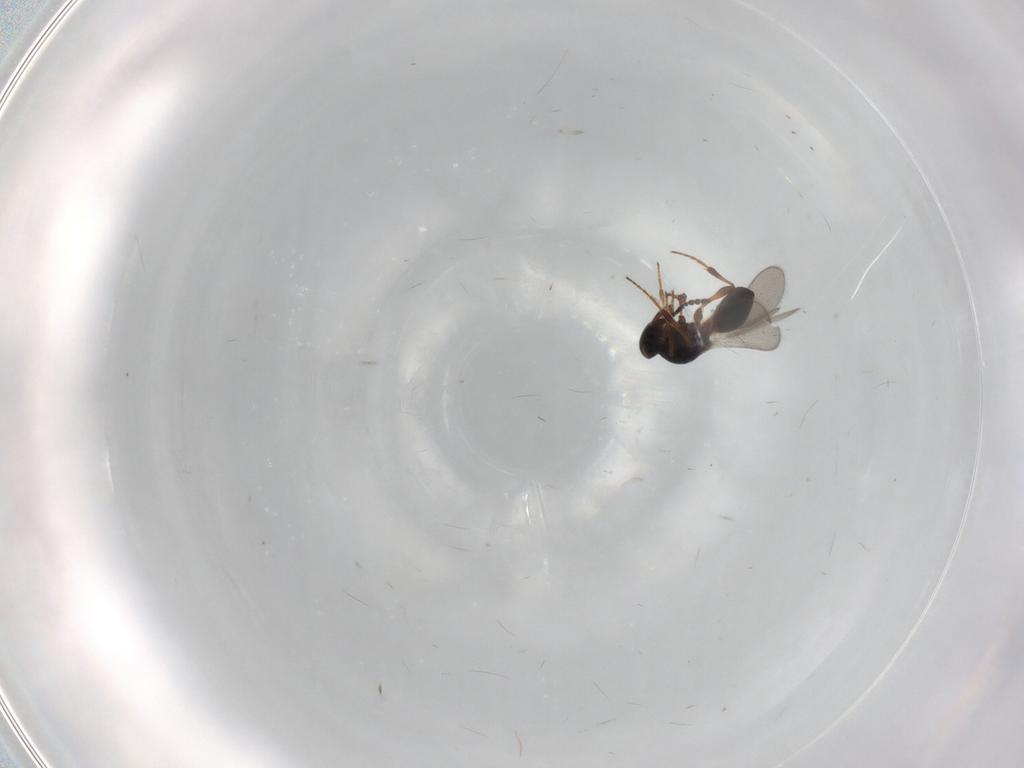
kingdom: Animalia
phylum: Arthropoda
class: Insecta
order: Hymenoptera
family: Platygastridae
